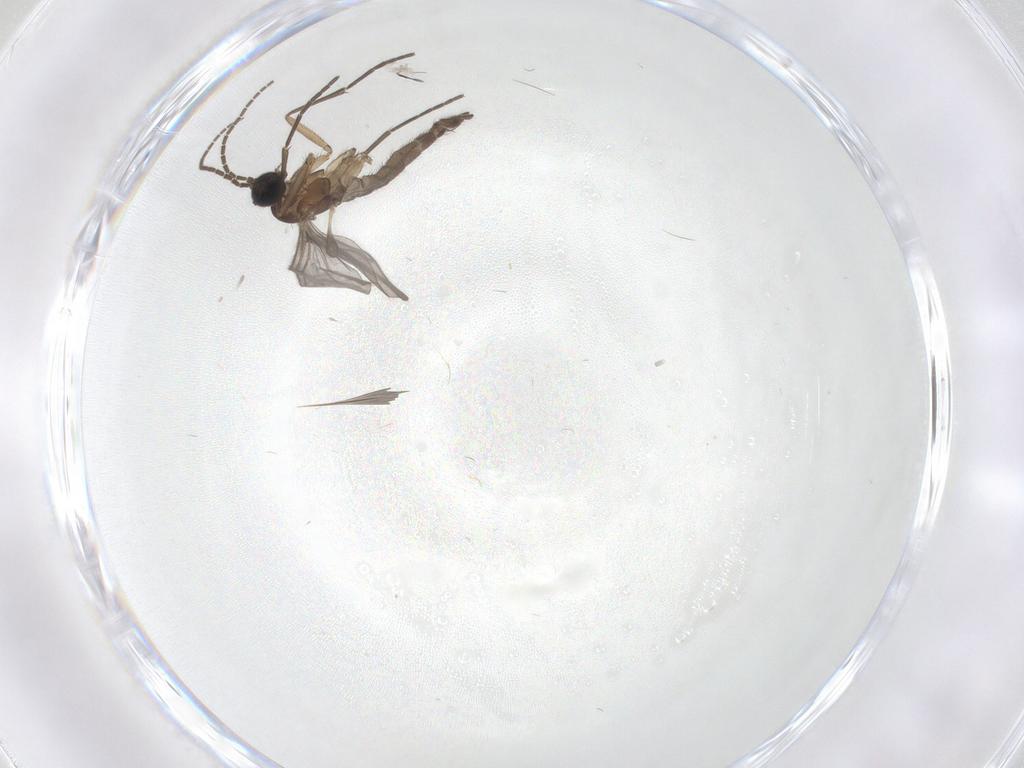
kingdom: Animalia
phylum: Arthropoda
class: Insecta
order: Diptera
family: Sciaridae
